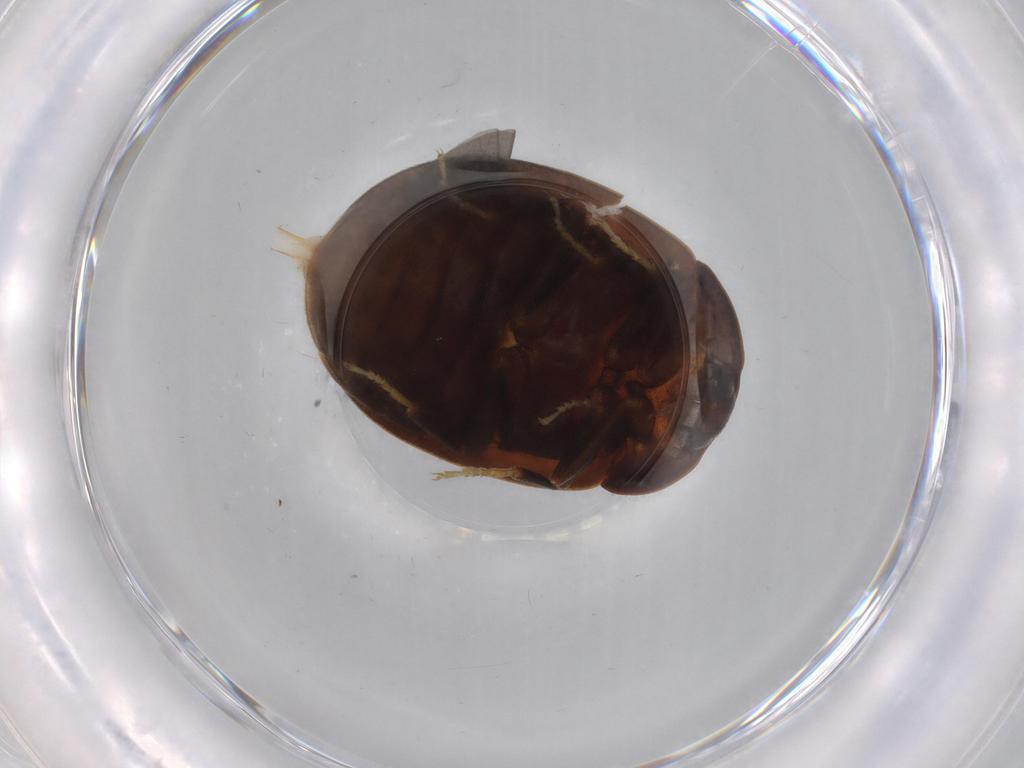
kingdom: Animalia
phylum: Arthropoda
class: Insecta
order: Coleoptera
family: Psephenidae
